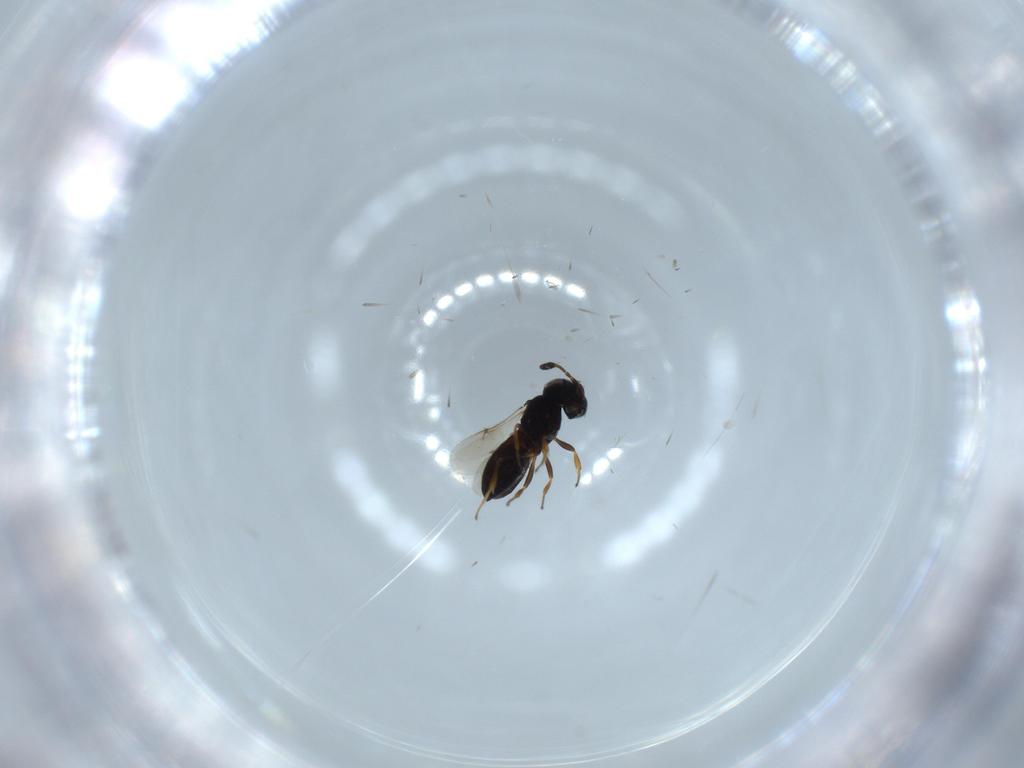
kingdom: Animalia
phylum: Arthropoda
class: Insecta
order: Hymenoptera
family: Scelionidae
